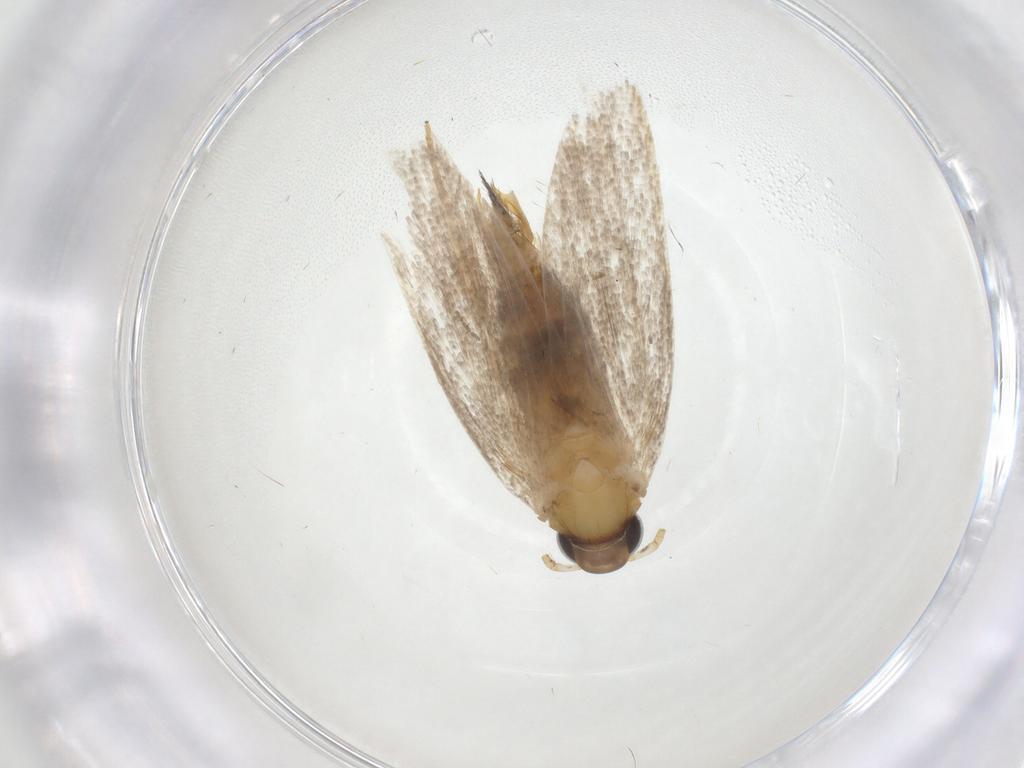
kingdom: Animalia
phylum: Arthropoda
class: Insecta
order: Lepidoptera
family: Oecophoridae
